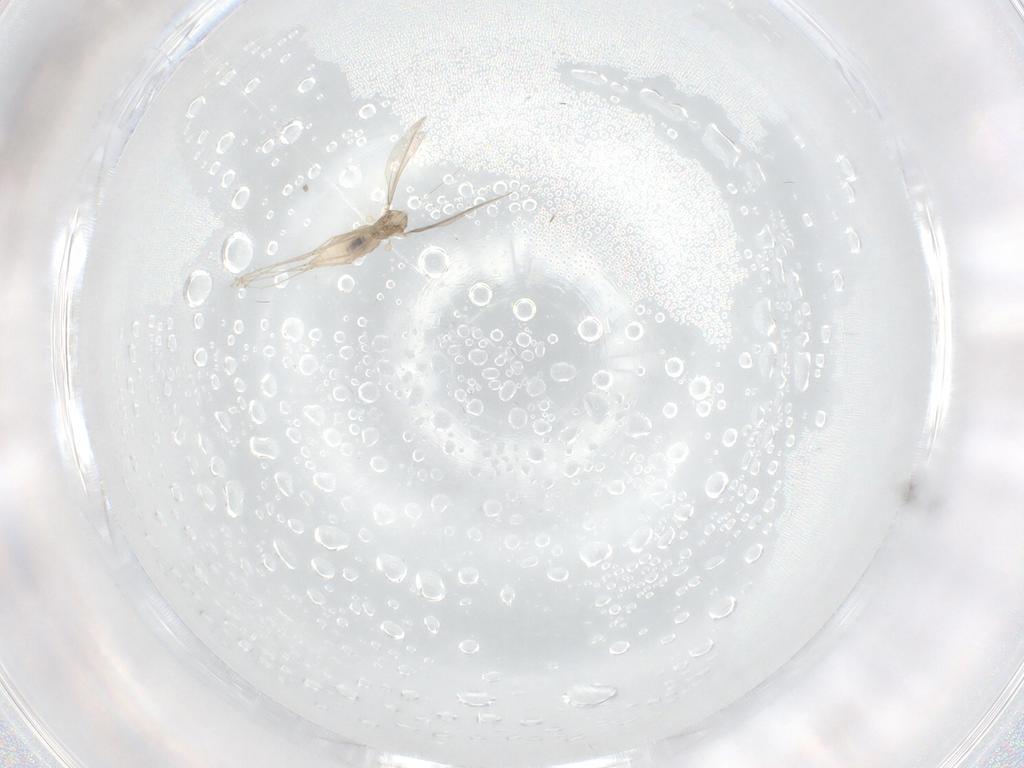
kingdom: Animalia
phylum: Arthropoda
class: Insecta
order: Diptera
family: Cecidomyiidae
